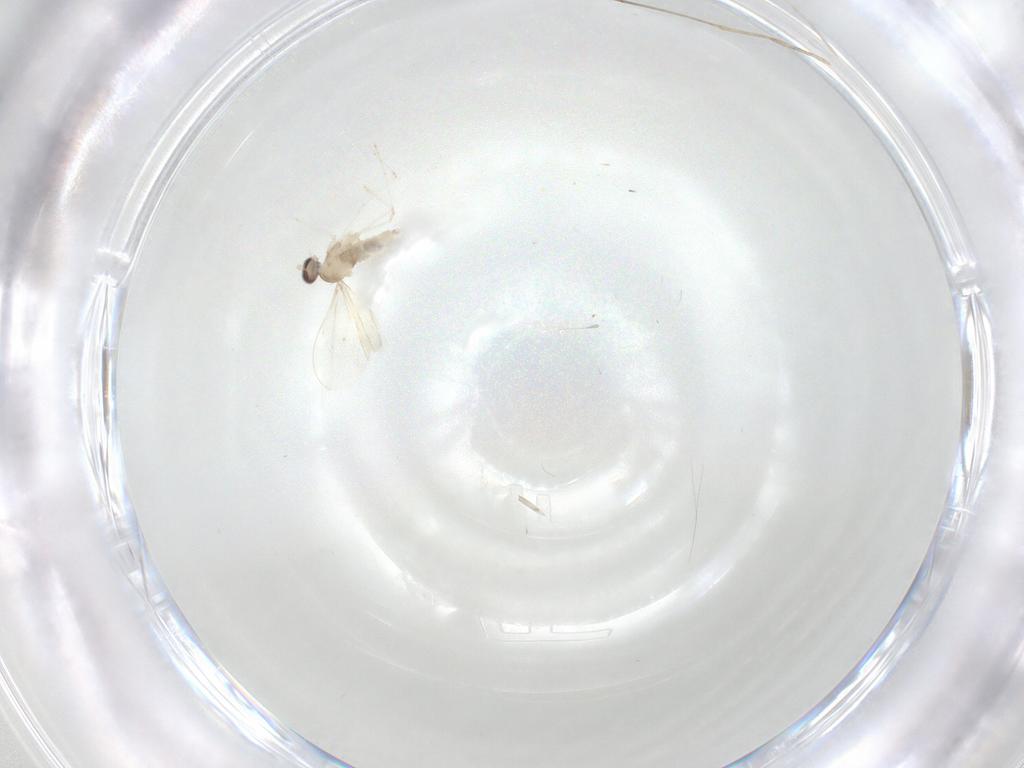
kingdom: Animalia
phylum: Arthropoda
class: Insecta
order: Diptera
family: Cecidomyiidae
